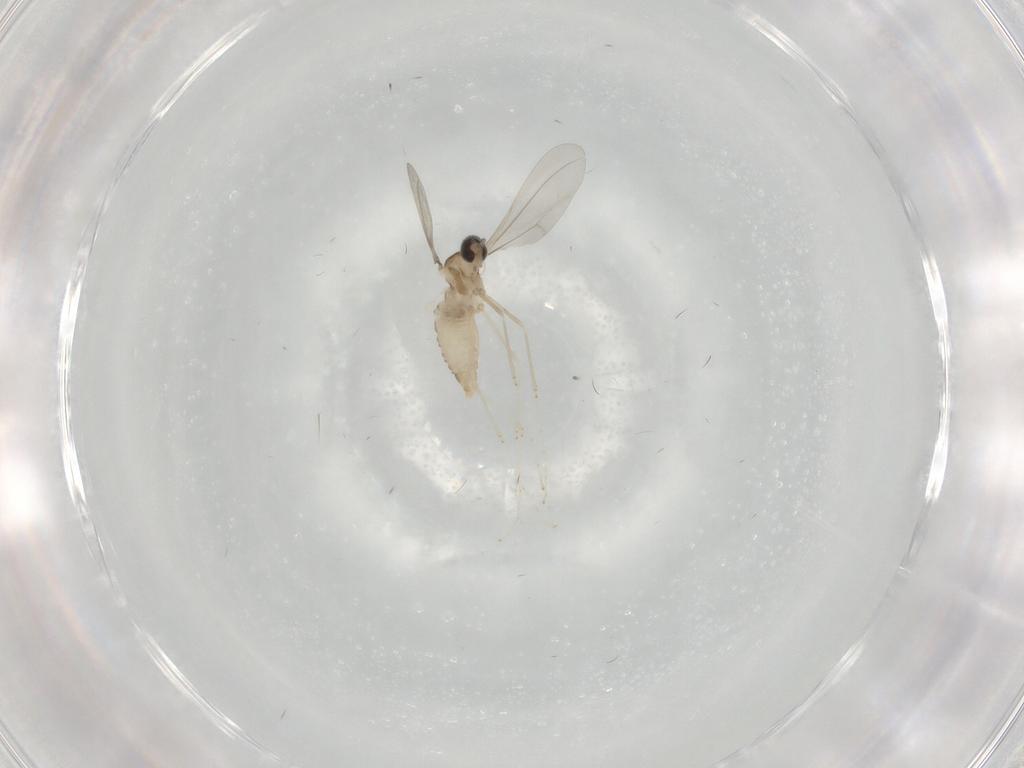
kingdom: Animalia
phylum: Arthropoda
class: Insecta
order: Diptera
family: Cecidomyiidae
